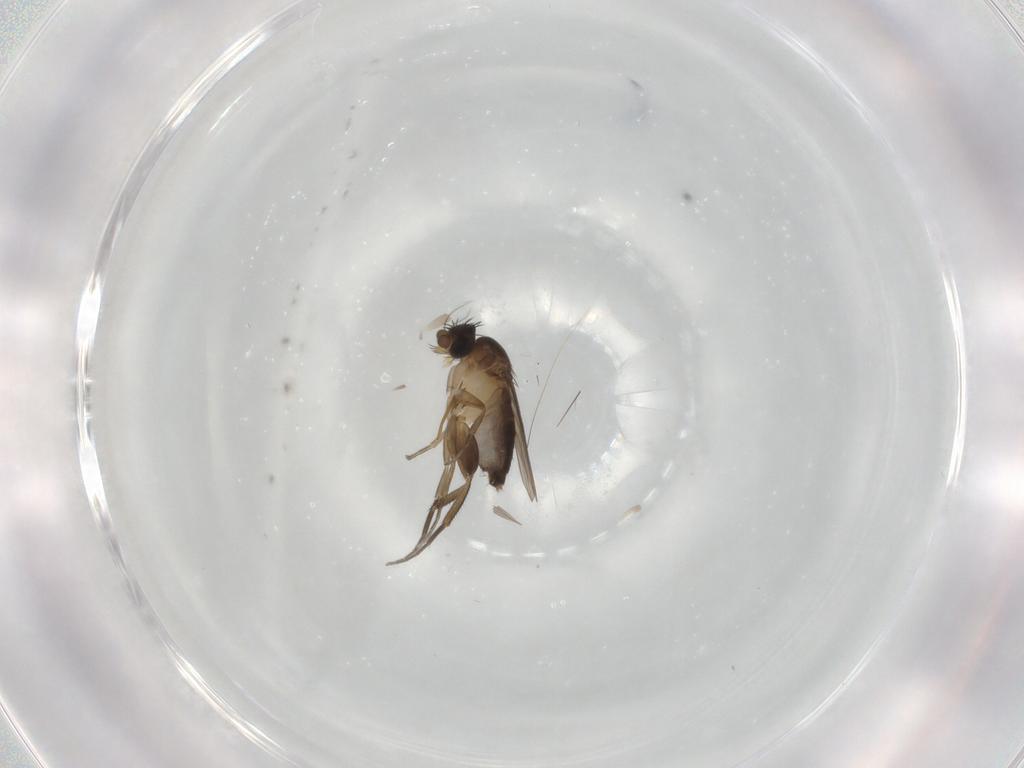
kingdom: Animalia
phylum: Arthropoda
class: Insecta
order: Diptera
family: Phoridae
